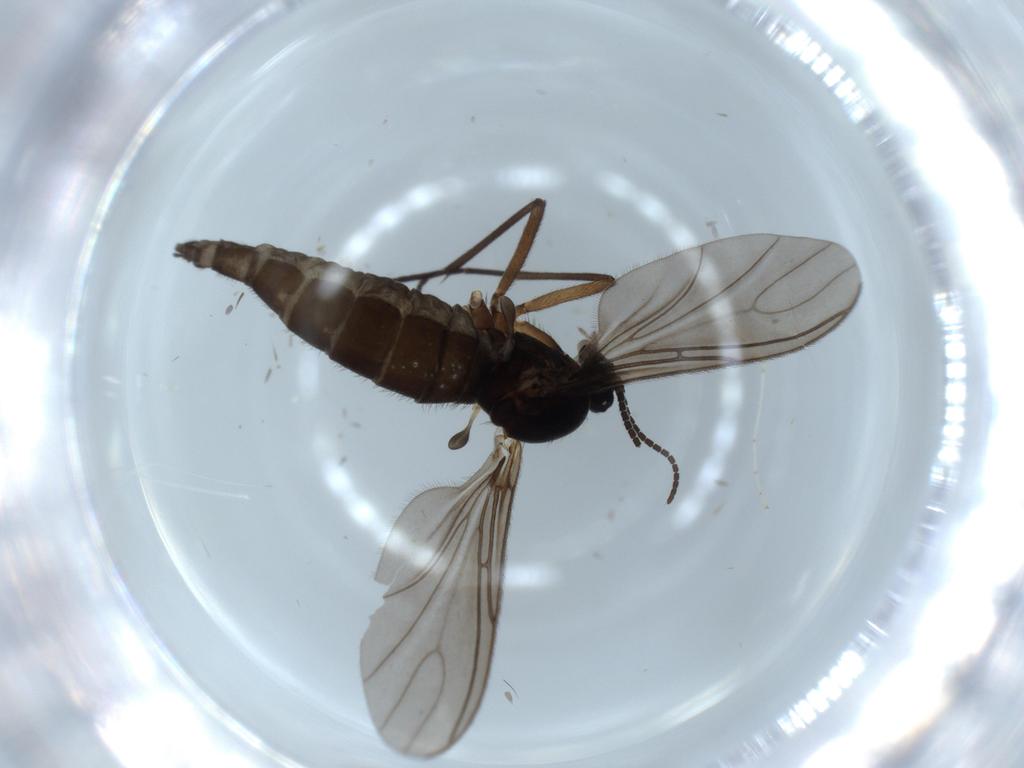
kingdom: Animalia
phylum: Arthropoda
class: Insecta
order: Diptera
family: Sciaridae
